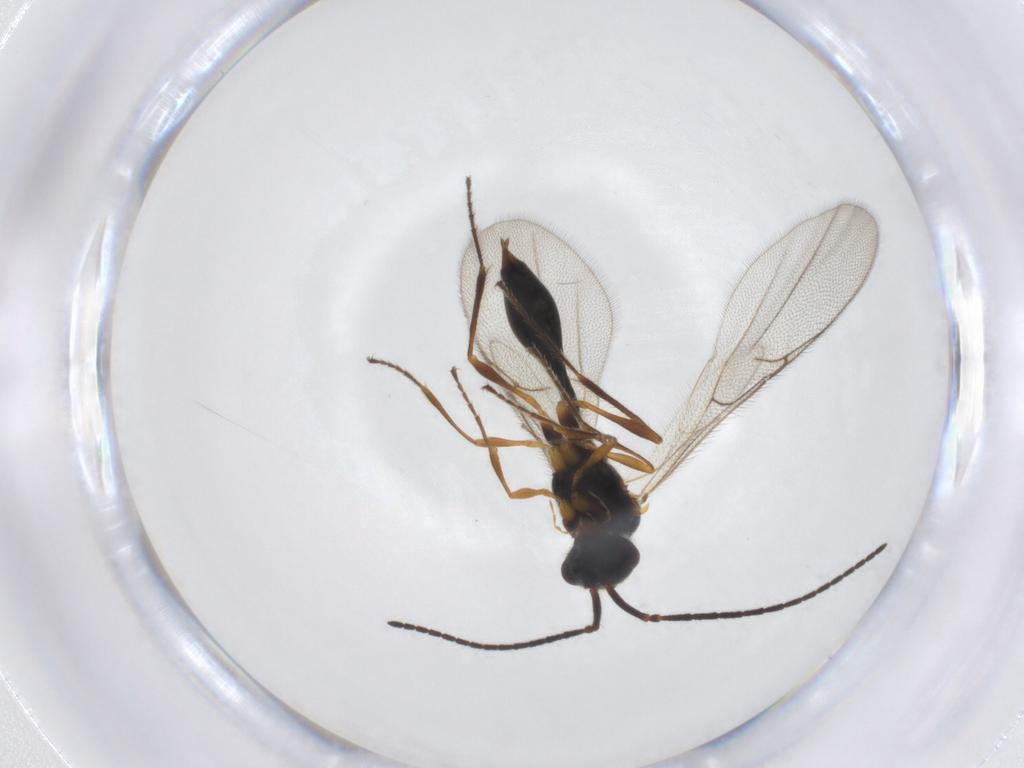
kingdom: Animalia
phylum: Arthropoda
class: Insecta
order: Hymenoptera
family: Diapriidae
